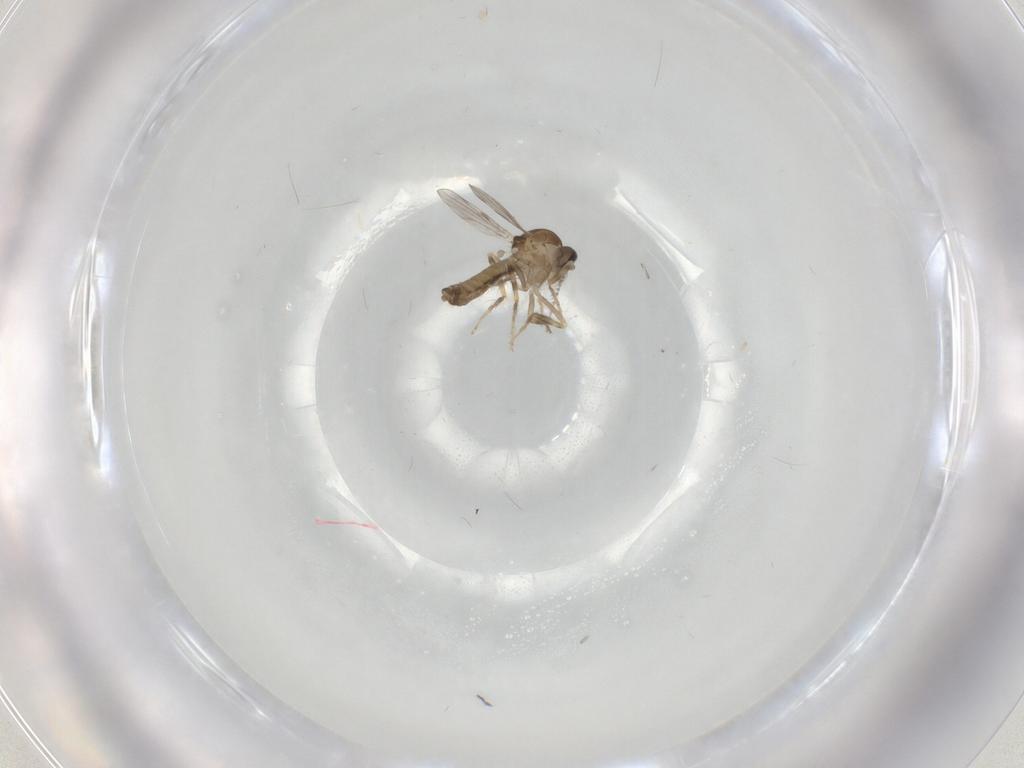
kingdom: Animalia
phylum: Arthropoda
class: Insecta
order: Diptera
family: Ceratopogonidae
